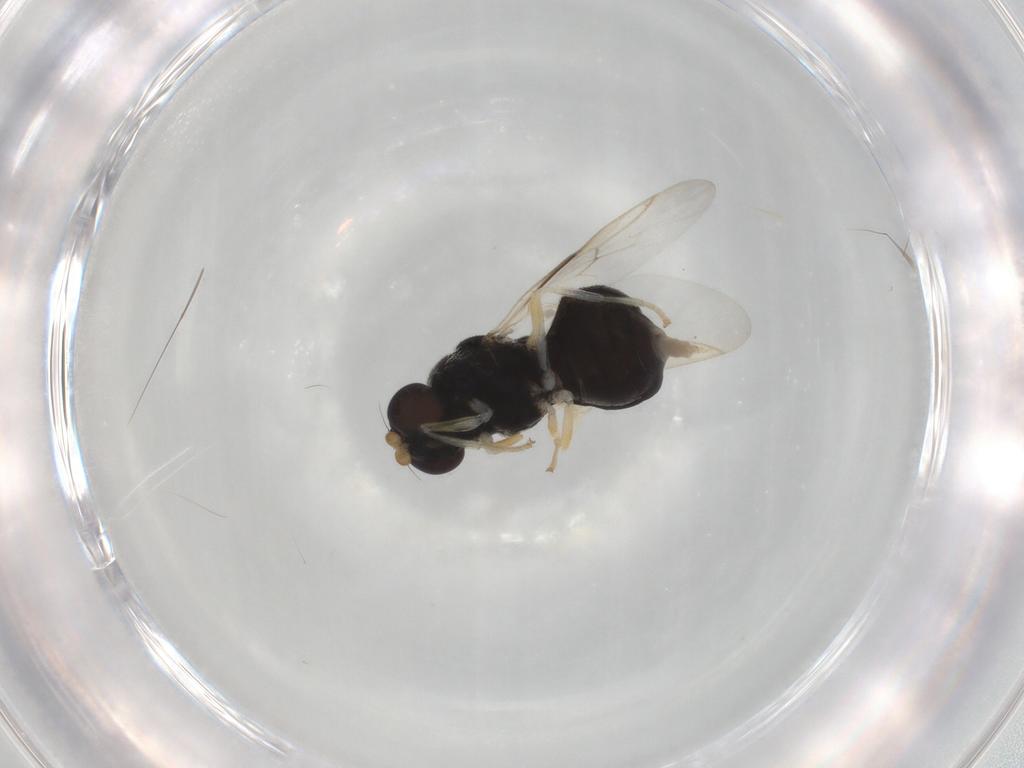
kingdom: Animalia
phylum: Arthropoda
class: Insecta
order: Diptera
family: Stratiomyidae
